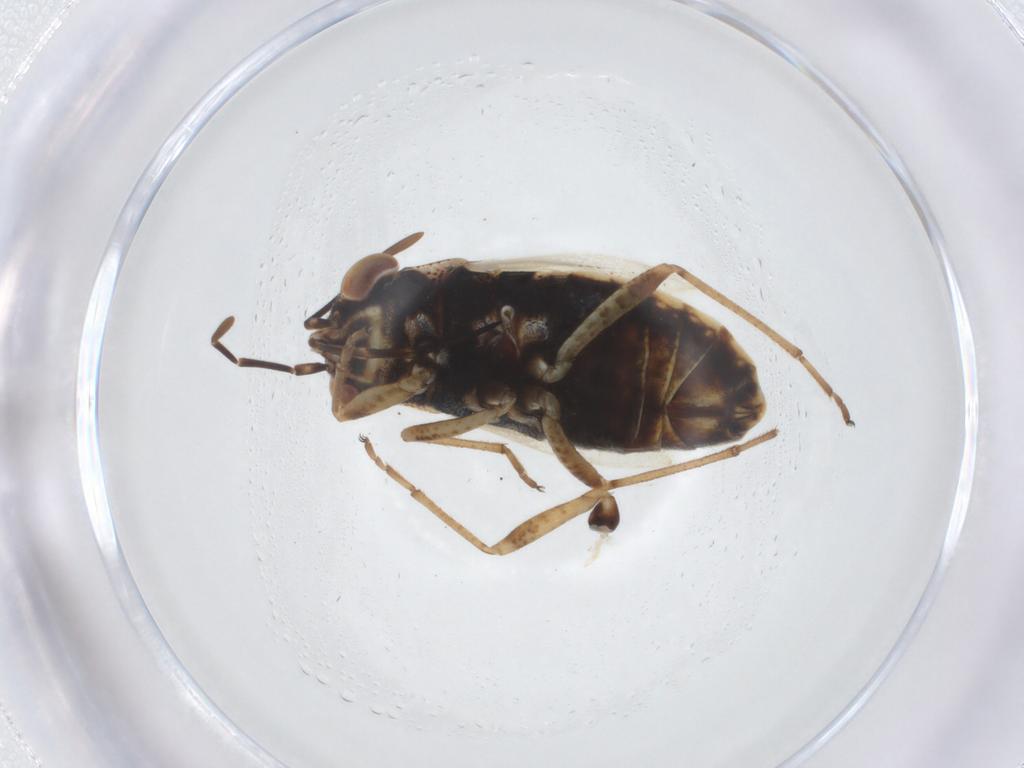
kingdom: Animalia
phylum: Arthropoda
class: Insecta
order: Hemiptera
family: Geocoridae
